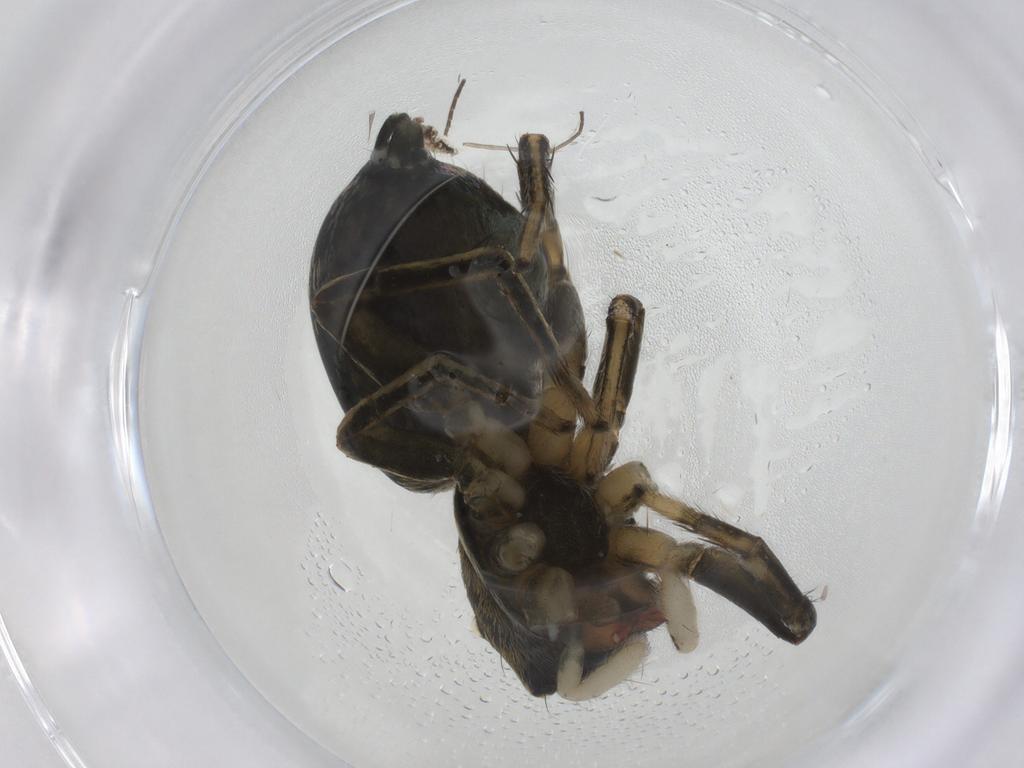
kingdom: Animalia
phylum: Arthropoda
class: Arachnida
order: Araneae
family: Salticidae
